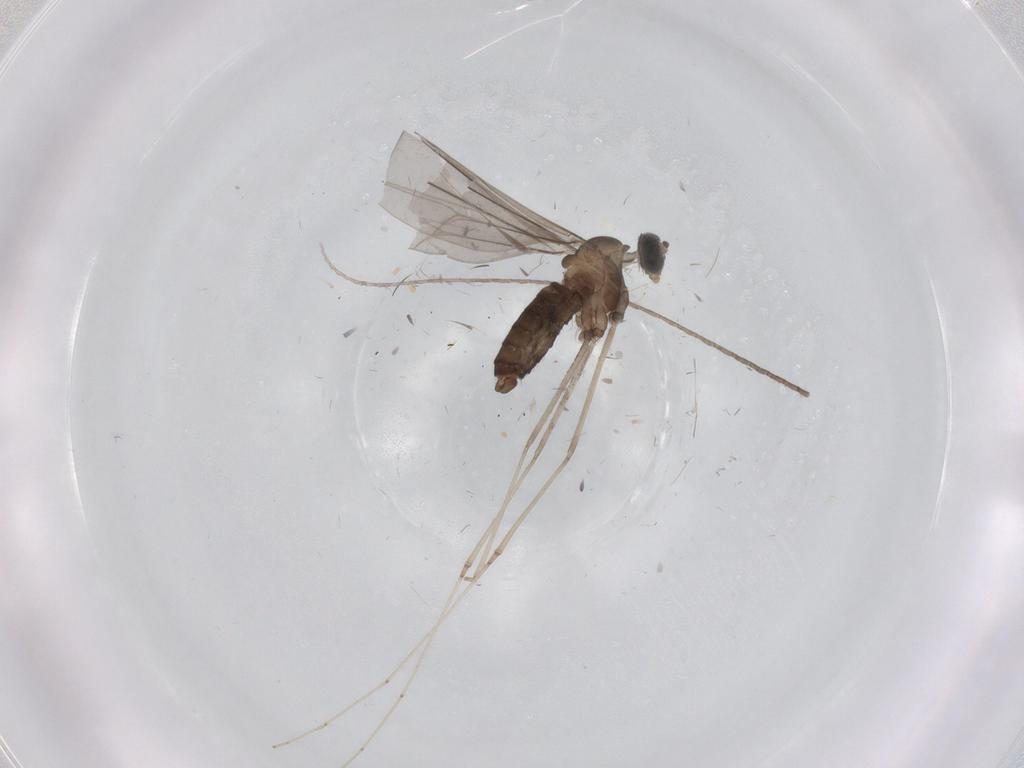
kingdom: Animalia
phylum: Arthropoda
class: Insecta
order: Diptera
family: Cecidomyiidae
